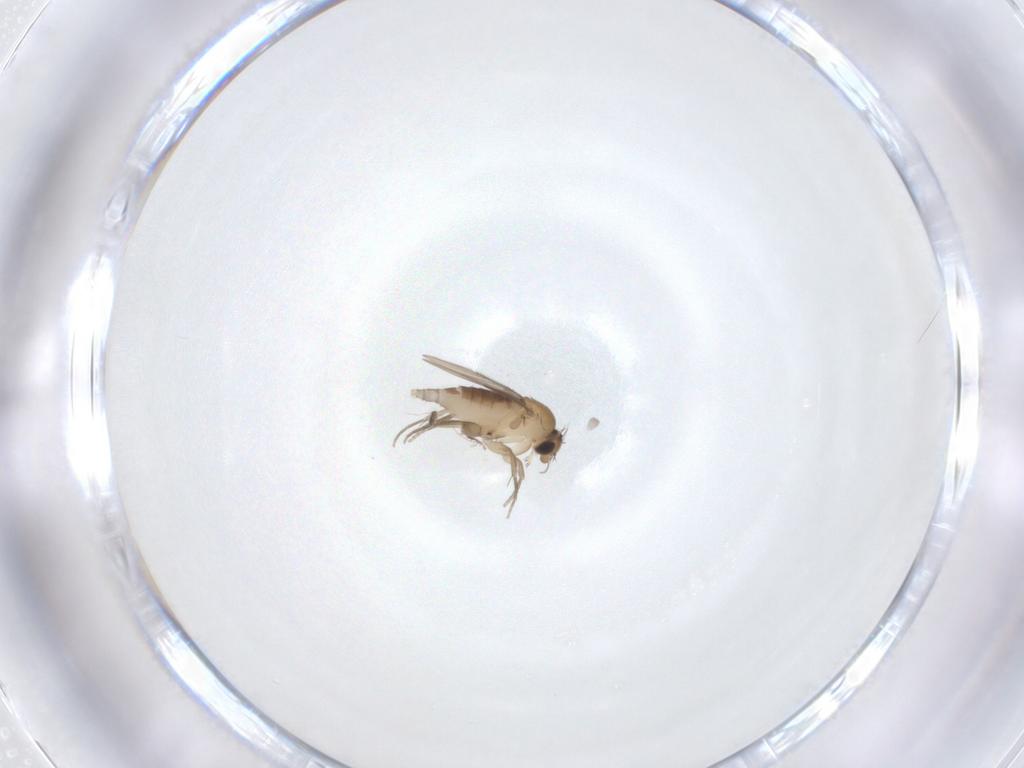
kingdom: Animalia
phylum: Arthropoda
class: Insecta
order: Diptera
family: Phoridae
